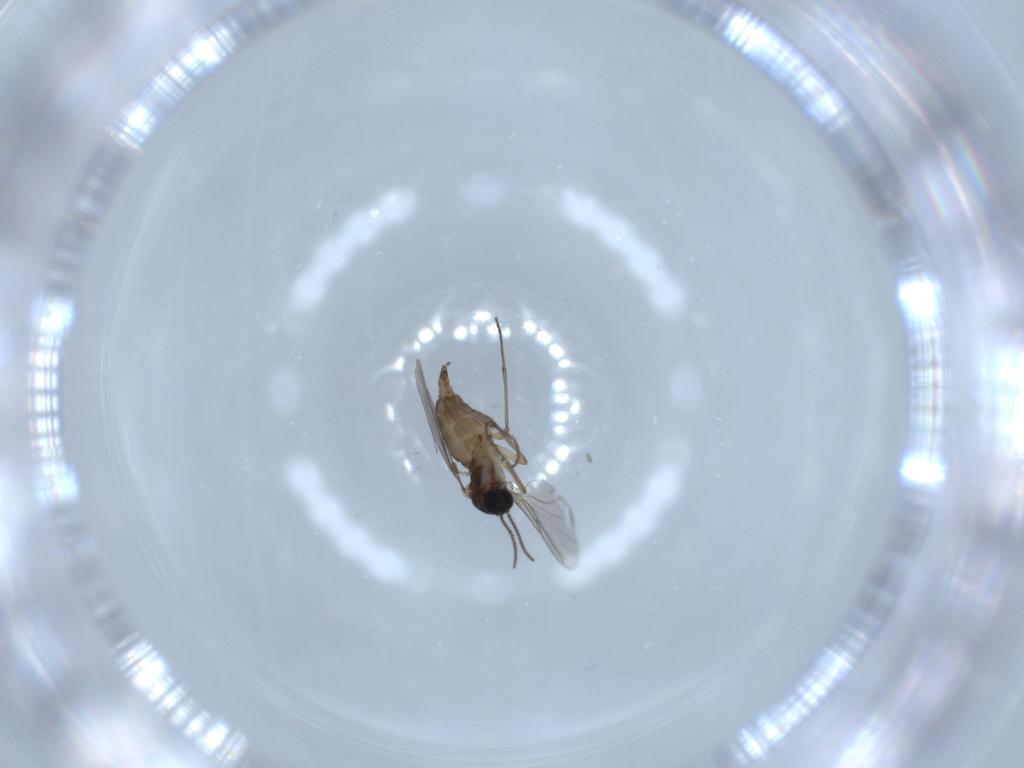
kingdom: Animalia
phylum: Arthropoda
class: Insecta
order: Diptera
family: Sciaridae
